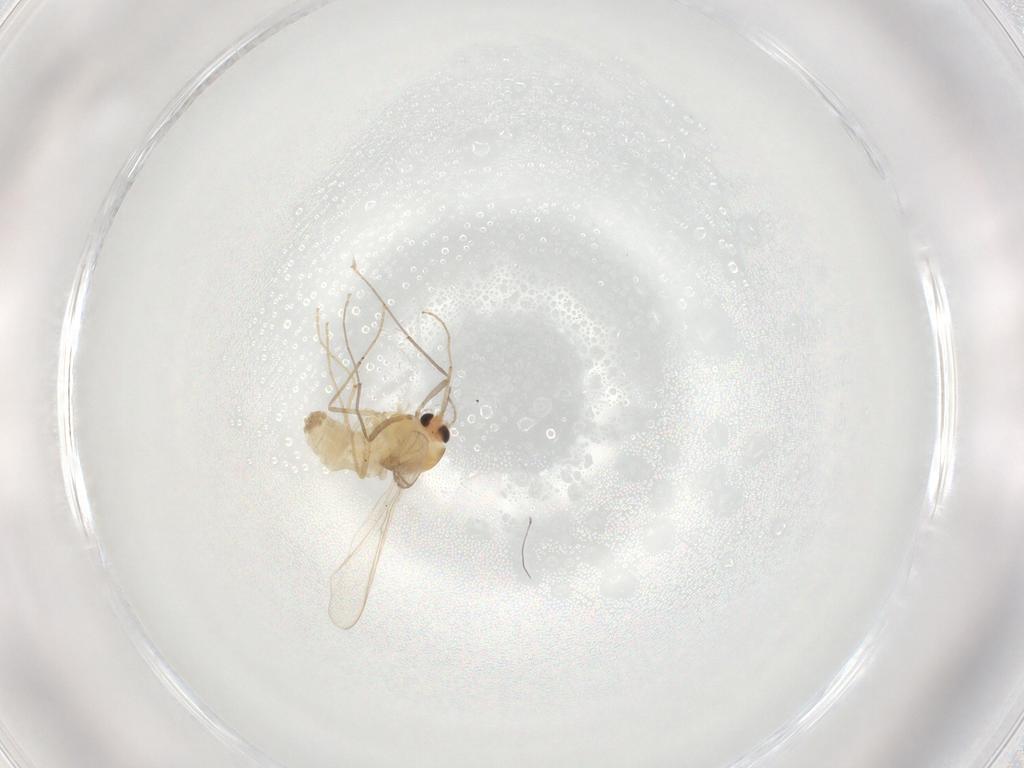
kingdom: Animalia
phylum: Arthropoda
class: Insecta
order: Diptera
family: Chironomidae
